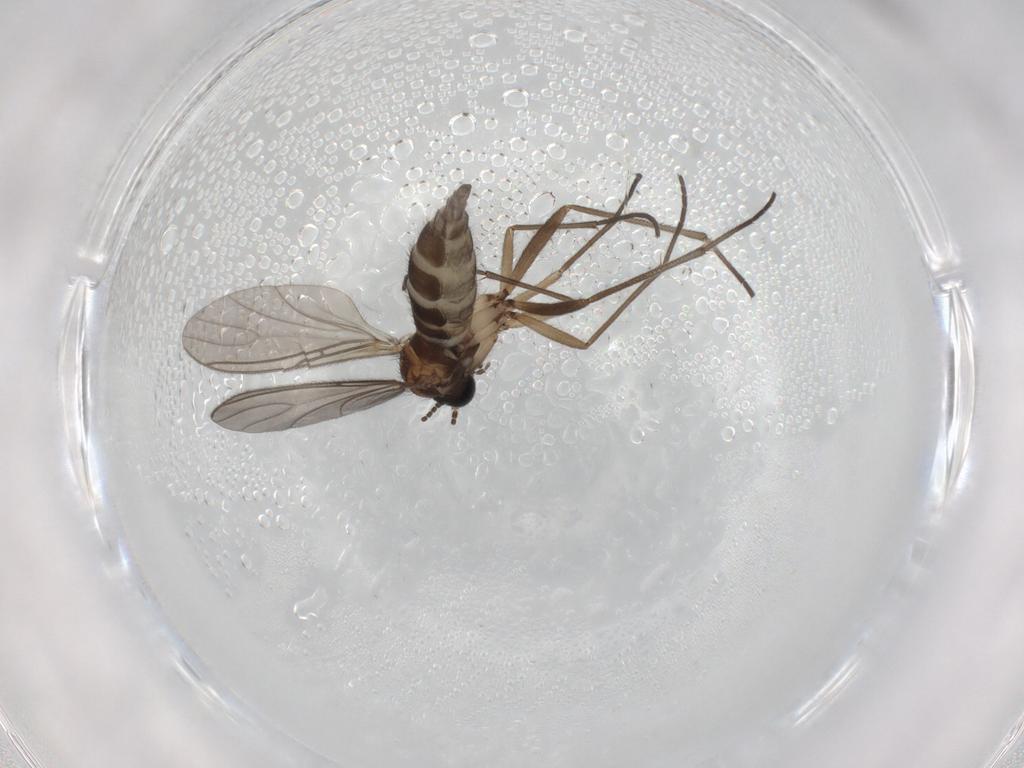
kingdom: Animalia
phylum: Arthropoda
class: Insecta
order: Diptera
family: Sciaridae
